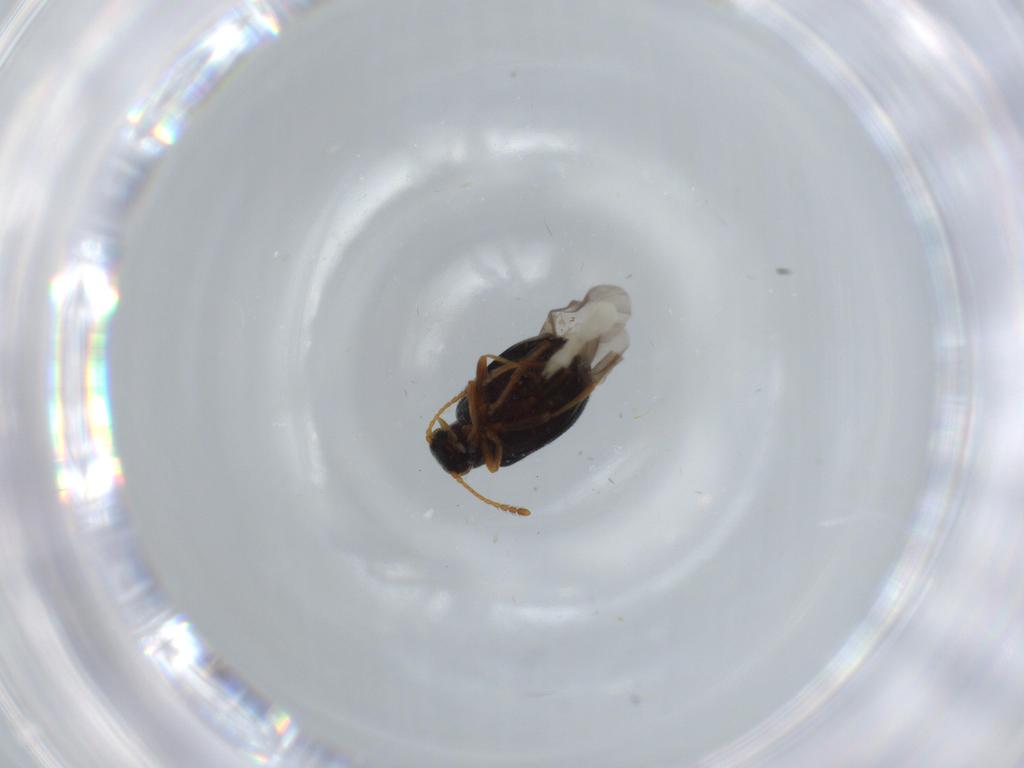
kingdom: Animalia
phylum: Arthropoda
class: Insecta
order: Coleoptera
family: Aderidae
